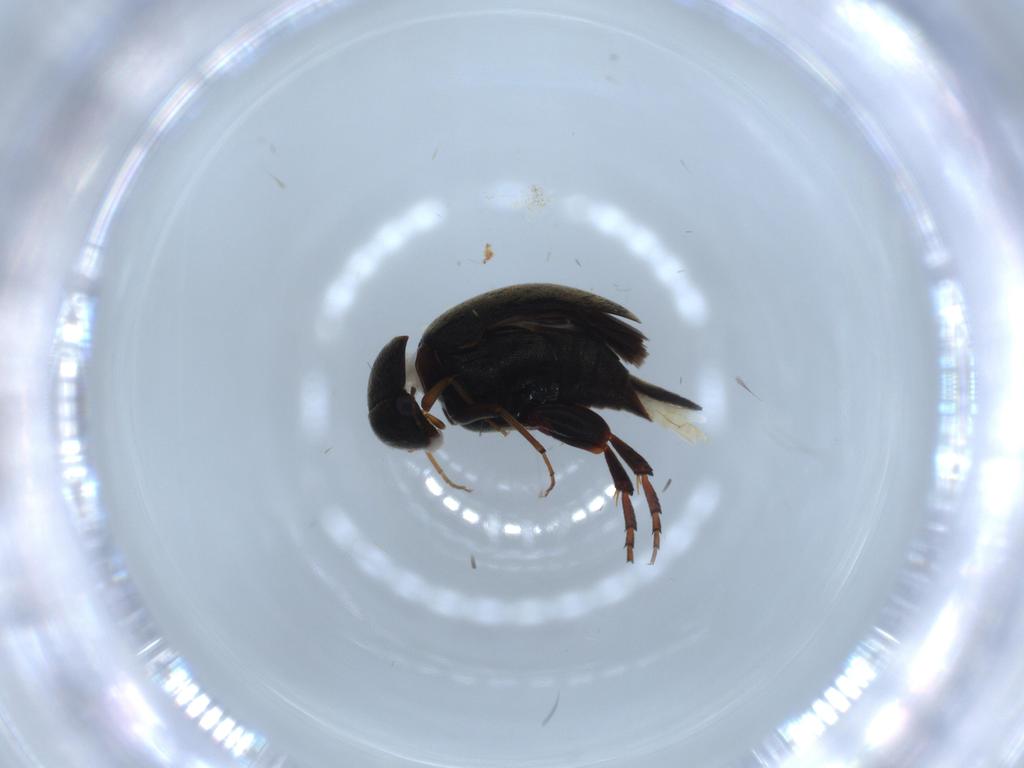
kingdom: Animalia
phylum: Arthropoda
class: Insecta
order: Coleoptera
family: Mordellidae
